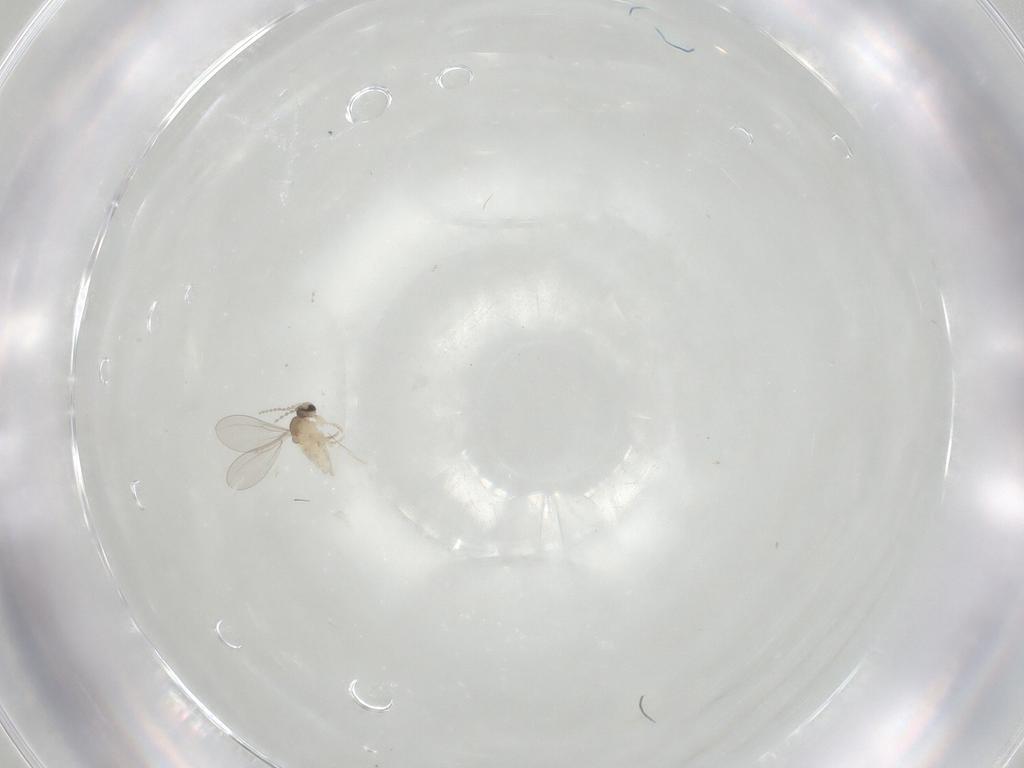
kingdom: Animalia
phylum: Arthropoda
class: Insecta
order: Diptera
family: Cecidomyiidae
